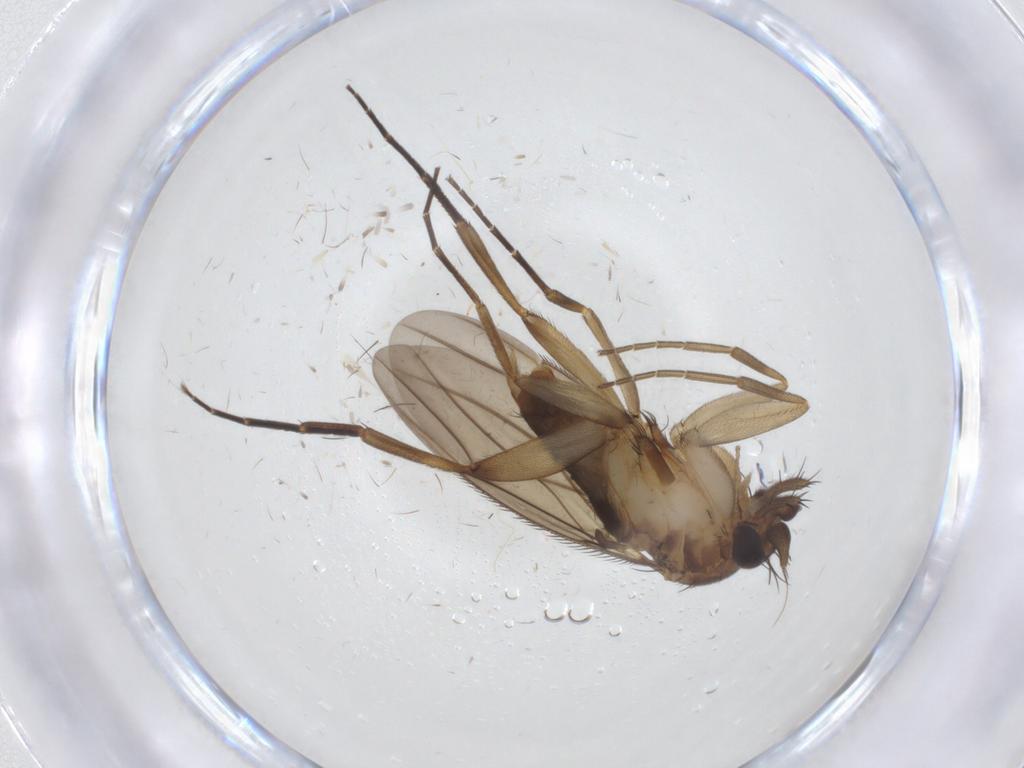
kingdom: Animalia
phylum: Arthropoda
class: Insecta
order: Diptera
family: Phoridae
